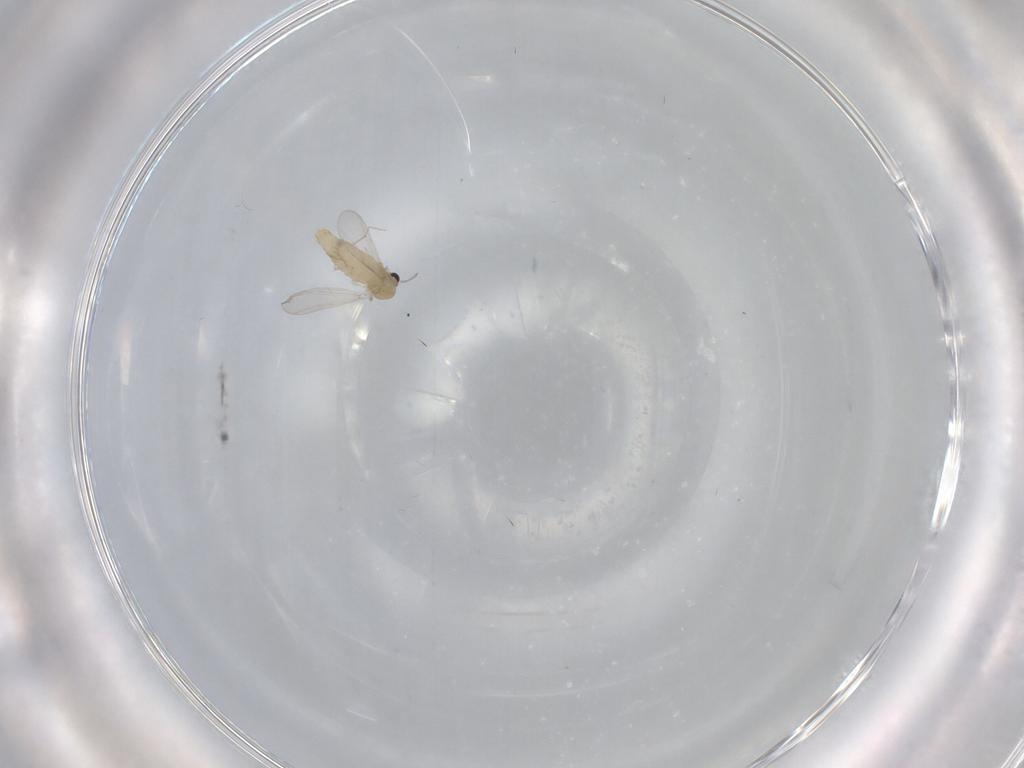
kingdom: Animalia
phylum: Arthropoda
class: Insecta
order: Diptera
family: Chironomidae
